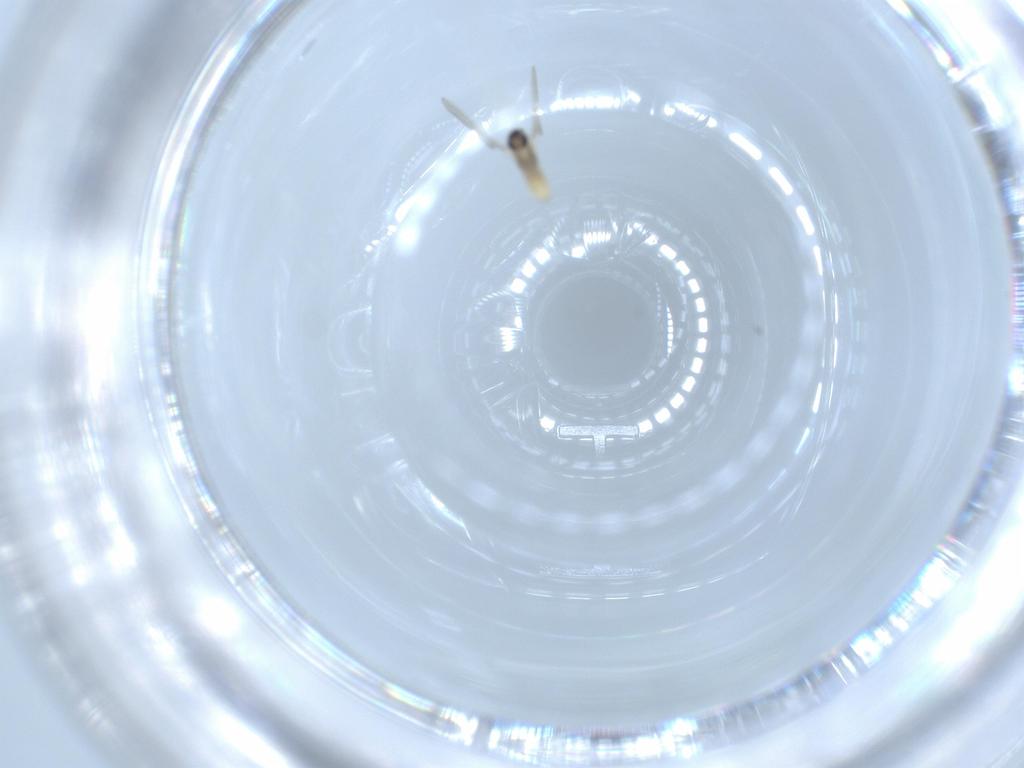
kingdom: Animalia
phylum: Arthropoda
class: Insecta
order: Diptera
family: Cecidomyiidae
